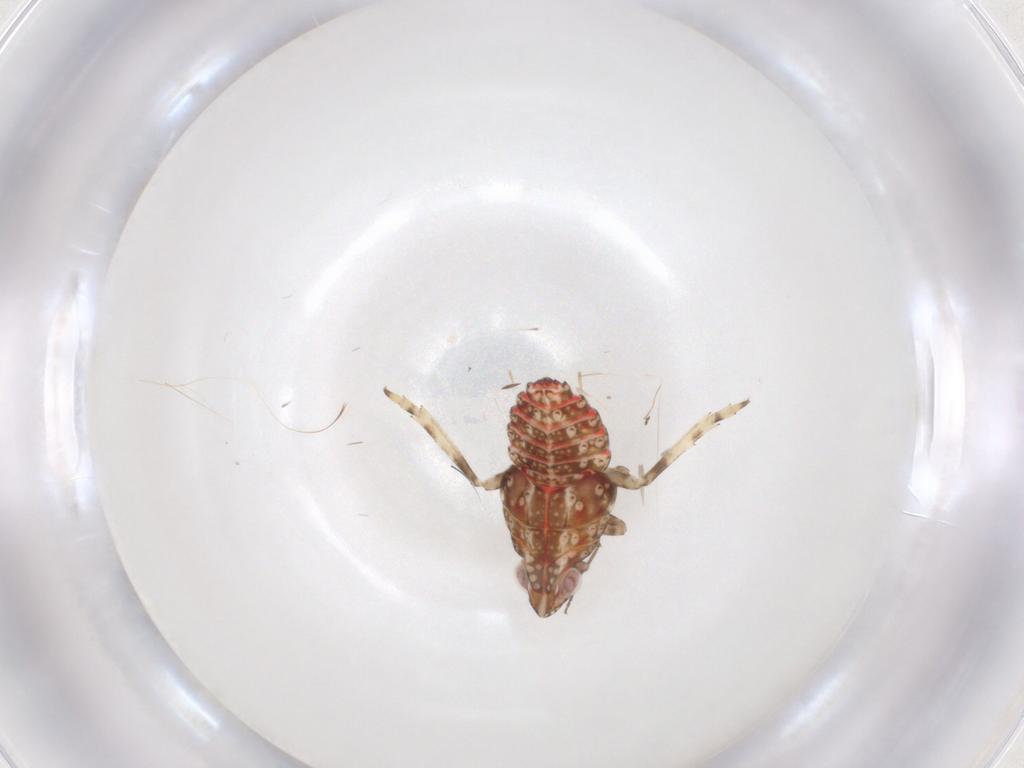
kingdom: Animalia
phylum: Arthropoda
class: Insecta
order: Hemiptera
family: Tropiduchidae
